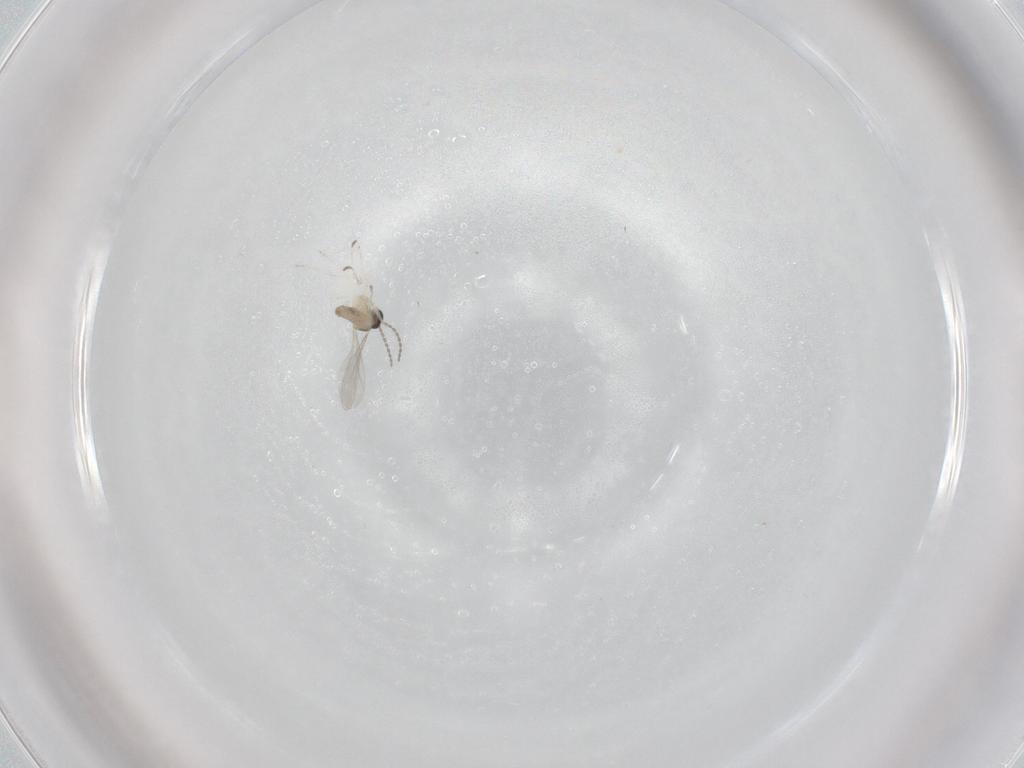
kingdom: Animalia
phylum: Arthropoda
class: Insecta
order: Diptera
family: Cecidomyiidae
